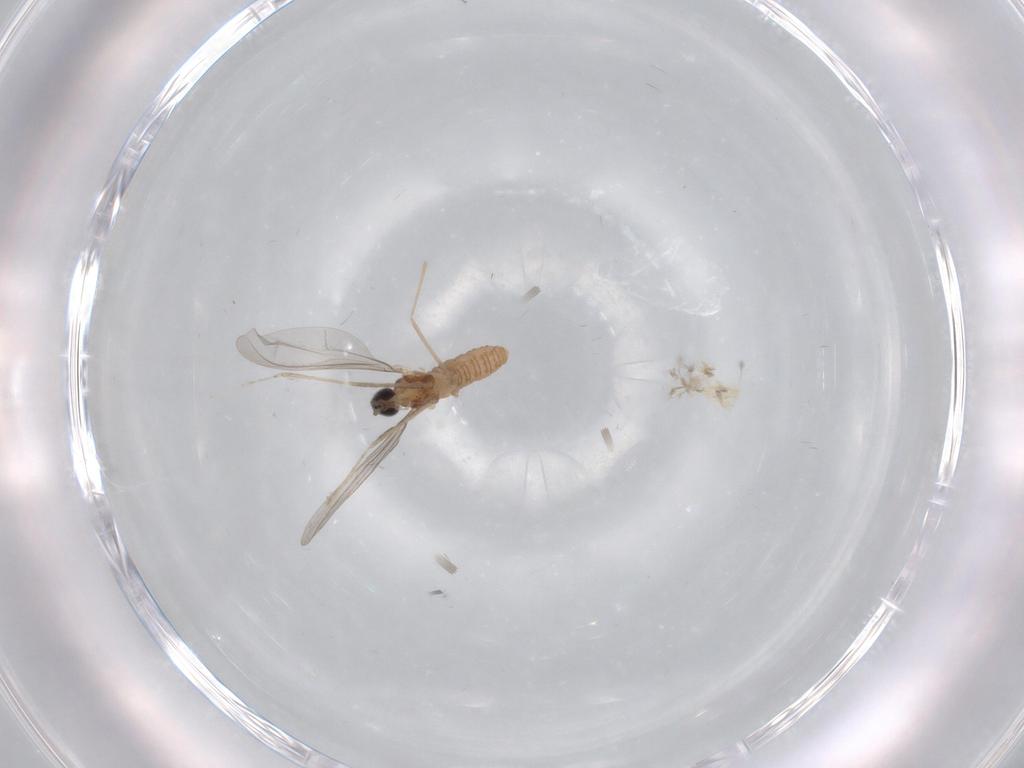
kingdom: Animalia
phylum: Arthropoda
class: Insecta
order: Diptera
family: Cecidomyiidae
